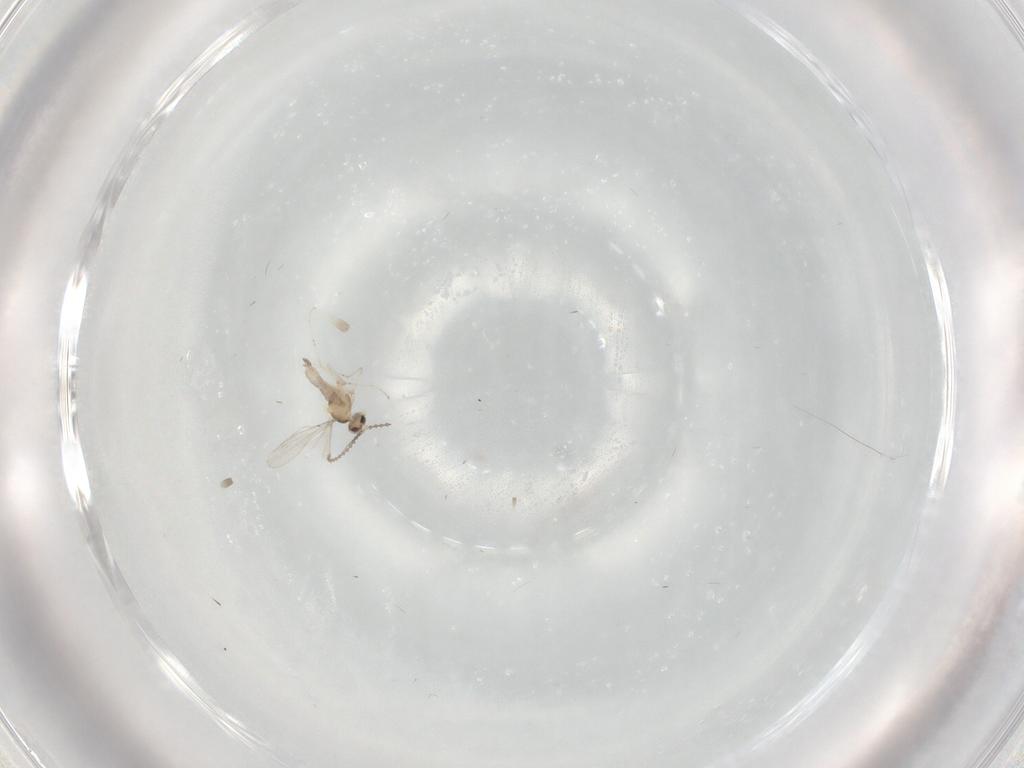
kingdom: Animalia
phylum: Arthropoda
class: Insecta
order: Diptera
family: Cecidomyiidae
